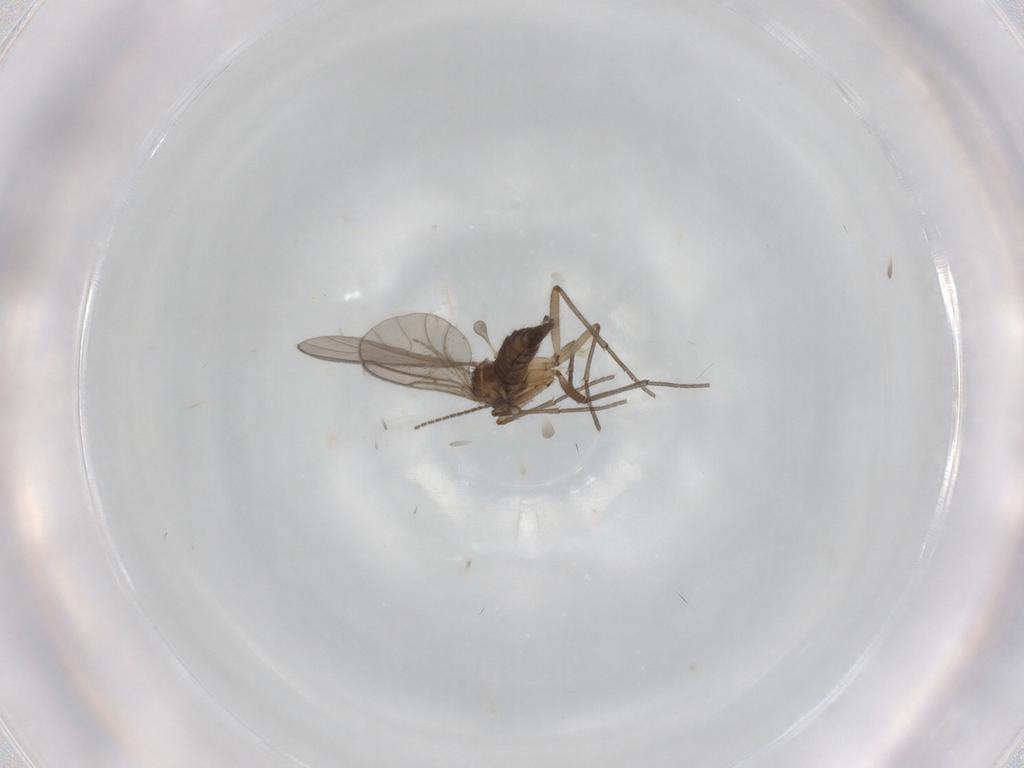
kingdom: Animalia
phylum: Arthropoda
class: Insecta
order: Diptera
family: Sciaridae
